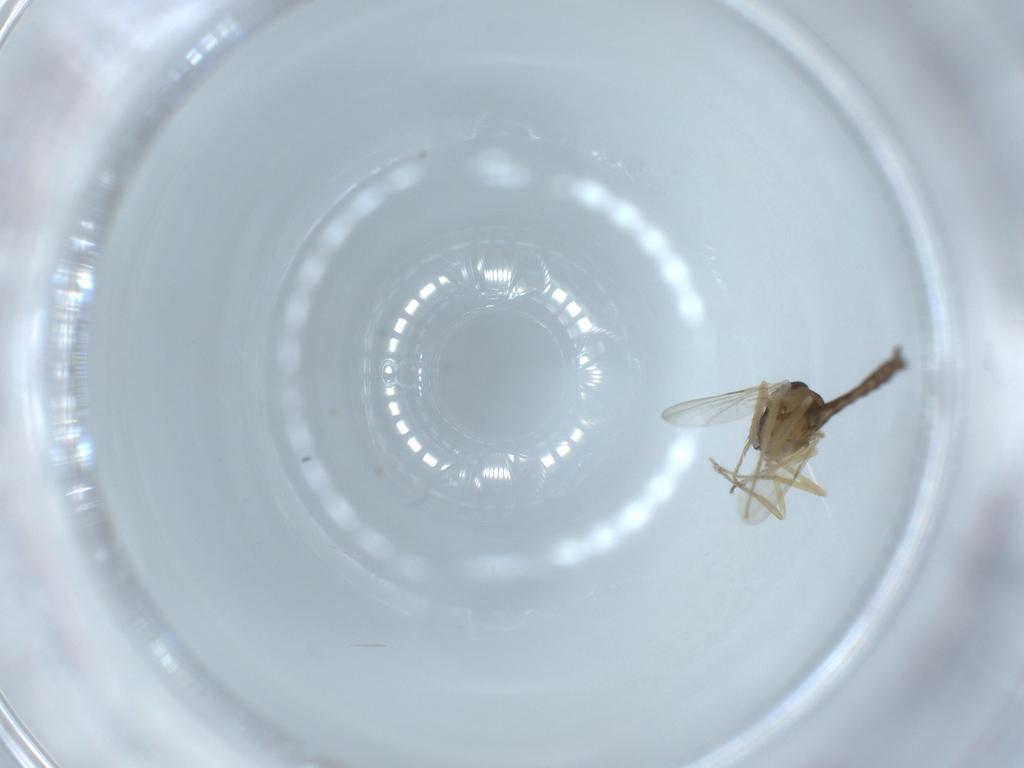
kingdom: Animalia
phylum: Arthropoda
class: Insecta
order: Diptera
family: Ceratopogonidae
